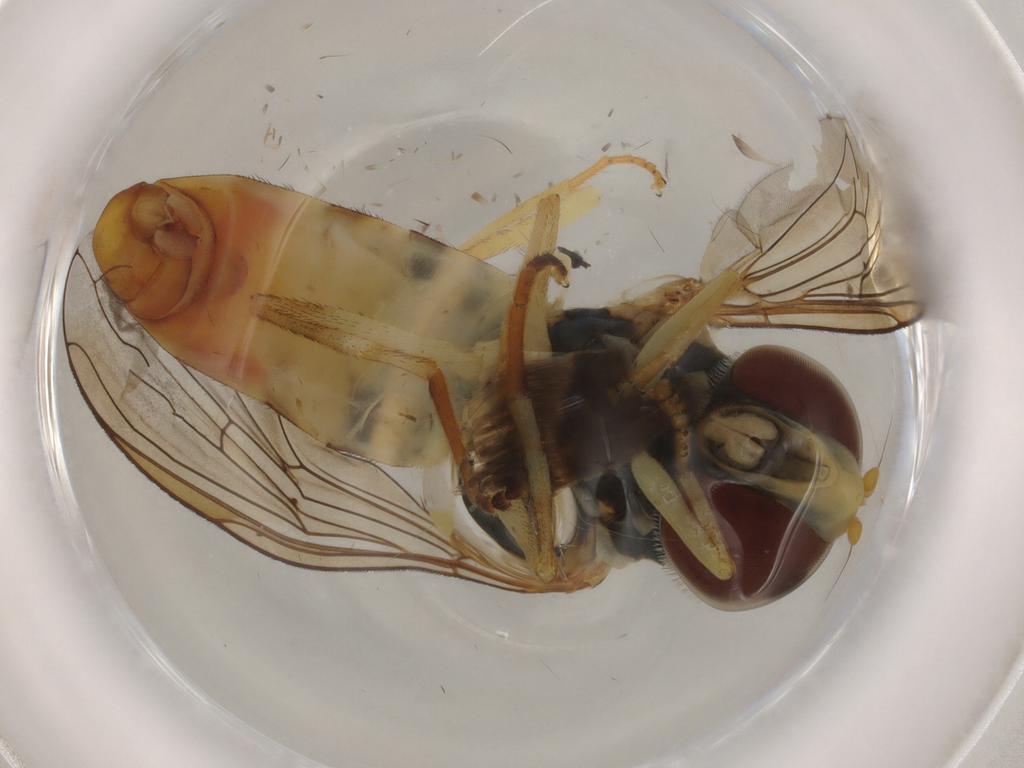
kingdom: Animalia
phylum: Arthropoda
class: Insecta
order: Diptera
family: Syrphidae
